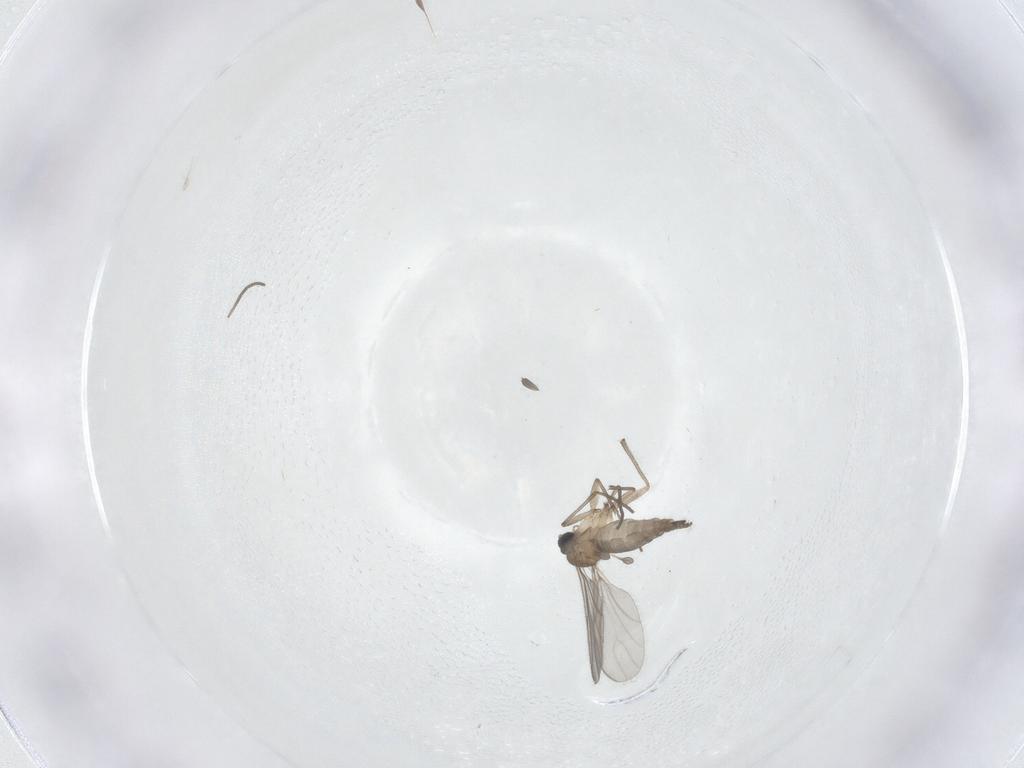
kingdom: Animalia
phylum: Arthropoda
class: Insecta
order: Diptera
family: Sciaridae
